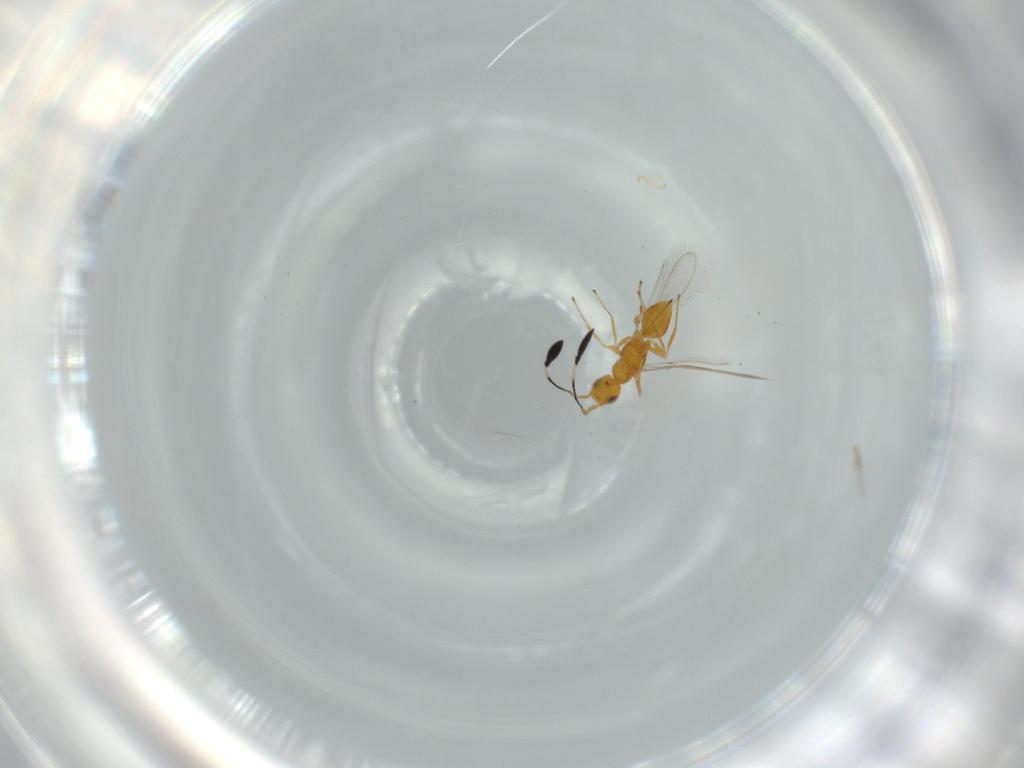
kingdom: Animalia
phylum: Arthropoda
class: Insecta
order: Hymenoptera
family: Mymaridae
